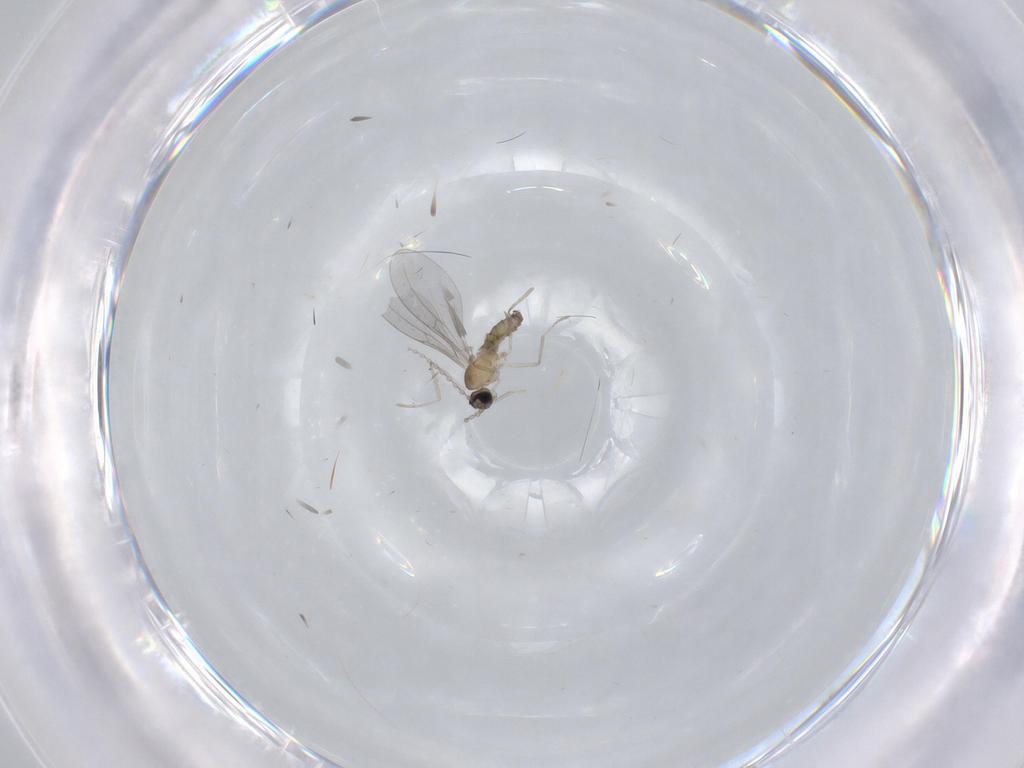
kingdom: Animalia
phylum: Arthropoda
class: Insecta
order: Diptera
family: Cecidomyiidae
